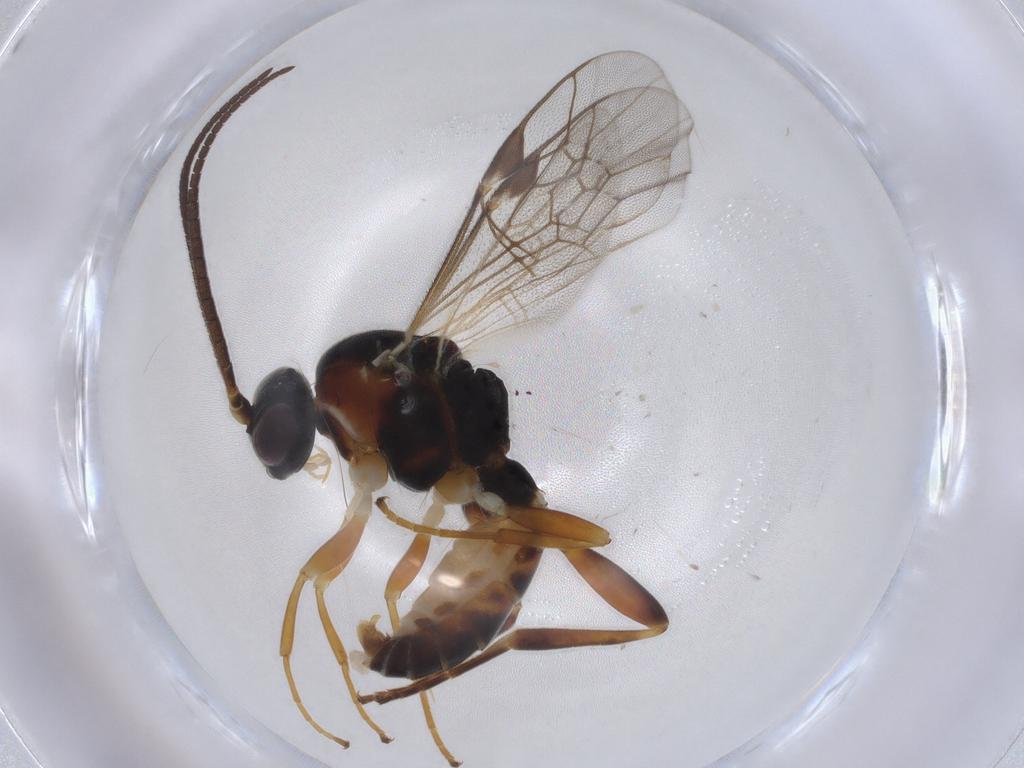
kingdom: Animalia
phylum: Arthropoda
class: Insecta
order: Hymenoptera
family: Ichneumonidae
